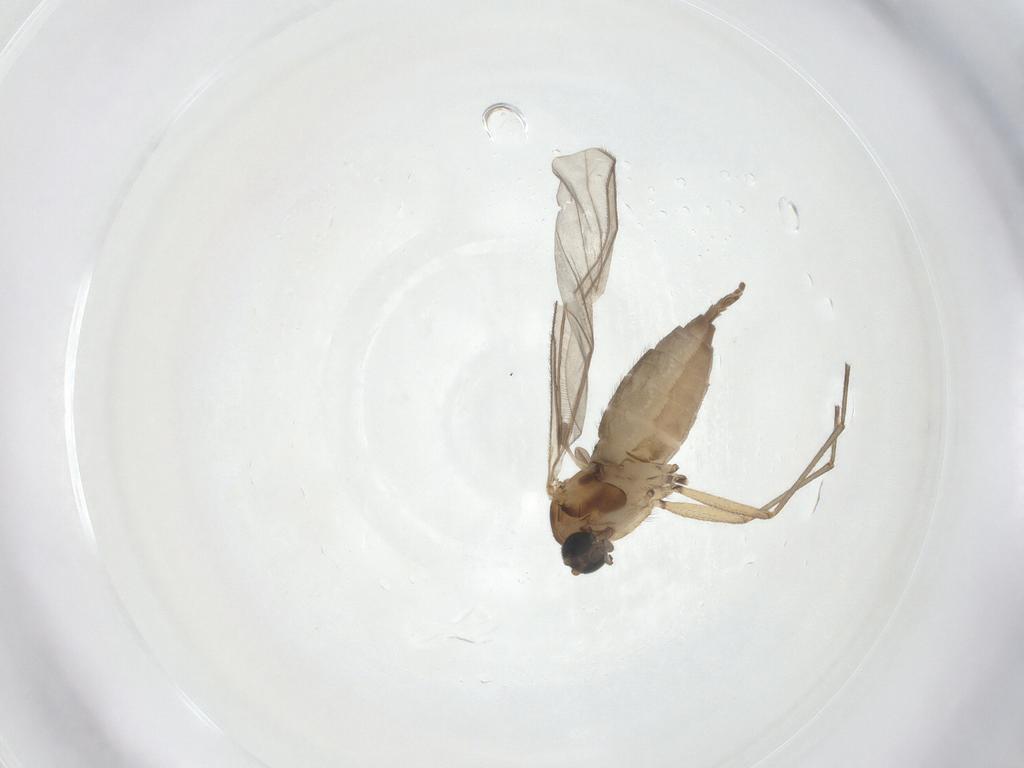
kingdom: Animalia
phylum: Arthropoda
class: Insecta
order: Diptera
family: Sciaridae
